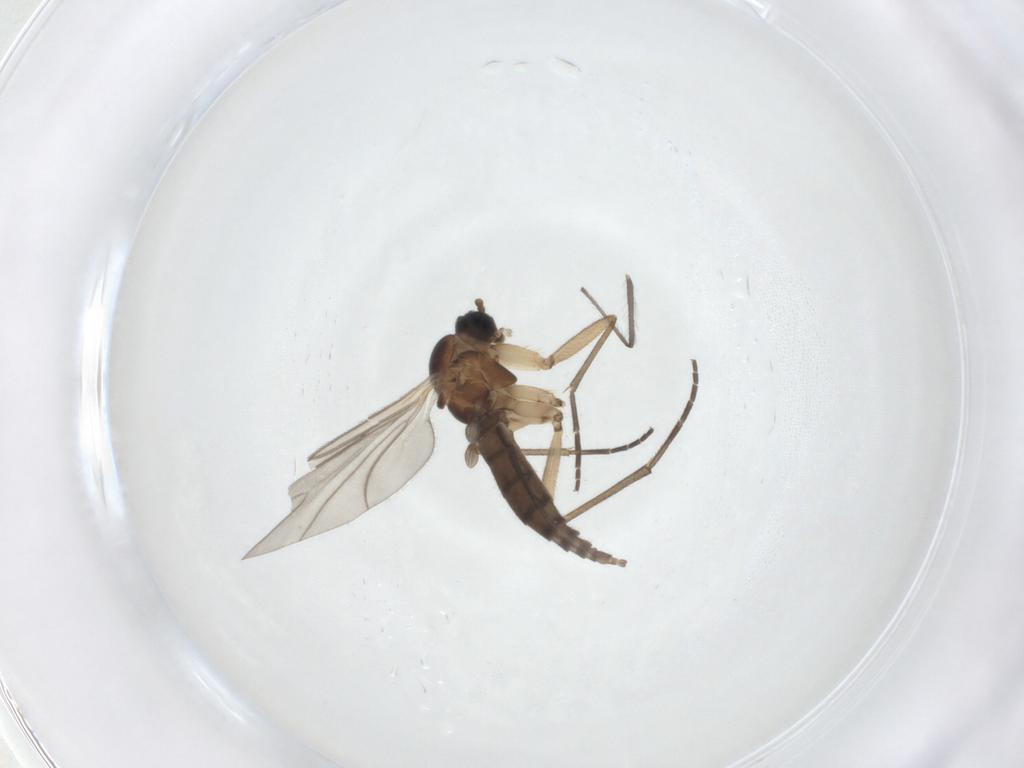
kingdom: Animalia
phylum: Arthropoda
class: Insecta
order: Diptera
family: Sciaridae
